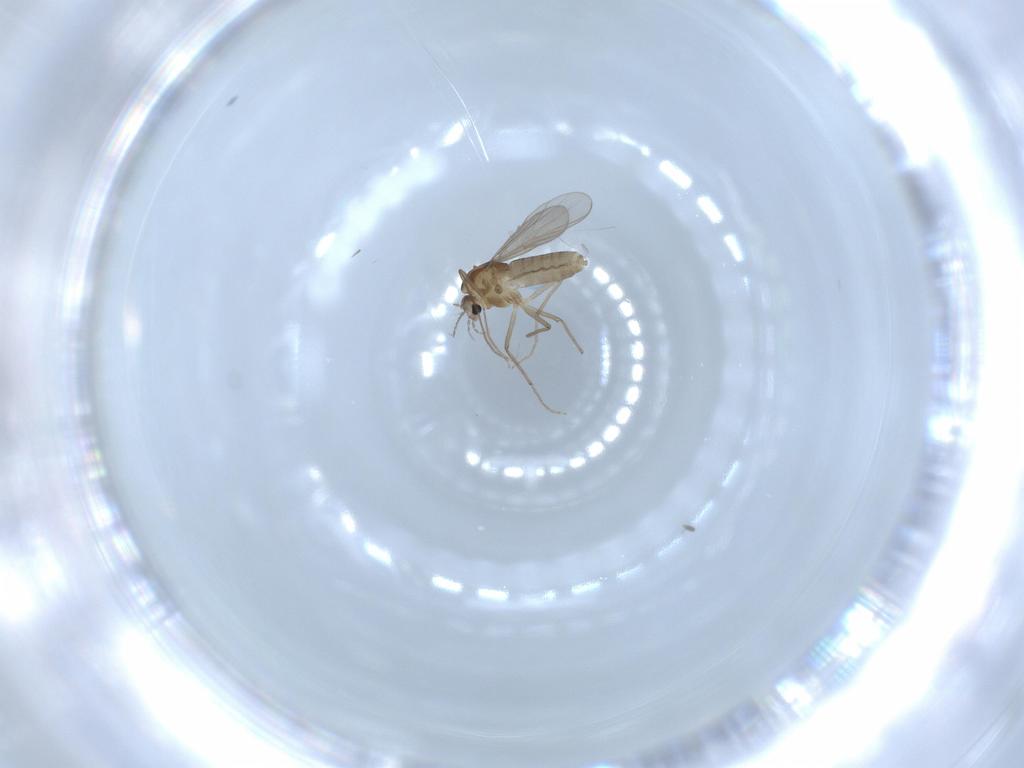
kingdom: Animalia
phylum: Arthropoda
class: Insecta
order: Diptera
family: Chironomidae
